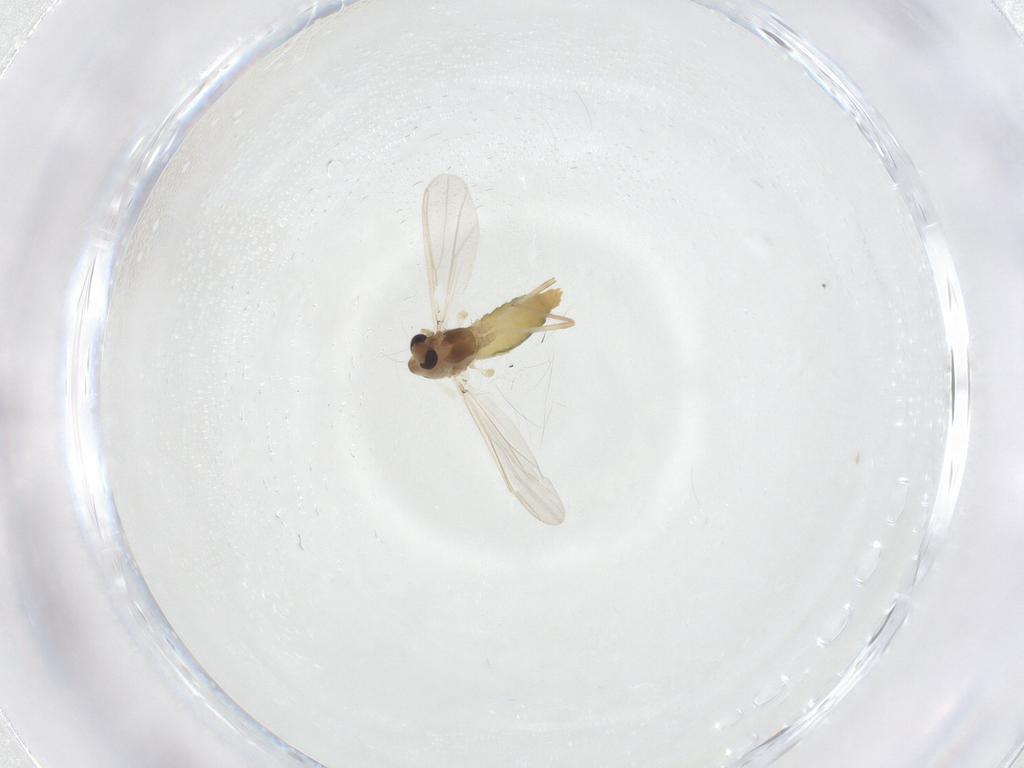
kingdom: Animalia
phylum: Arthropoda
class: Insecta
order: Diptera
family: Chironomidae
